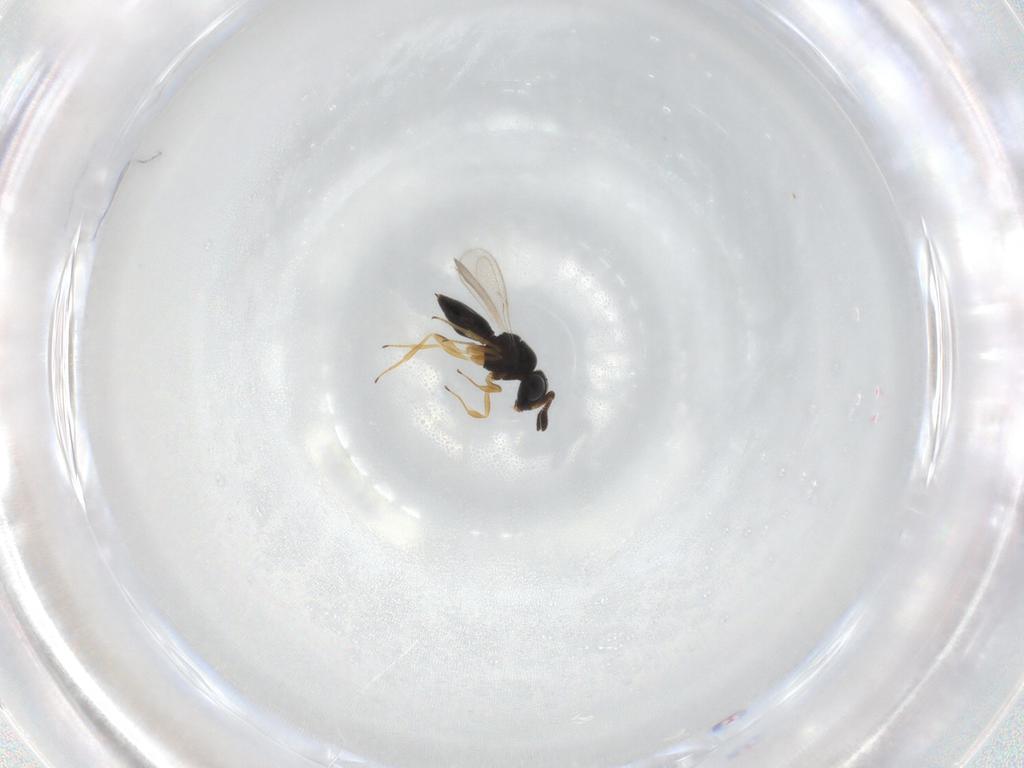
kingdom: Animalia
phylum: Arthropoda
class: Insecta
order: Hymenoptera
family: Scelionidae
